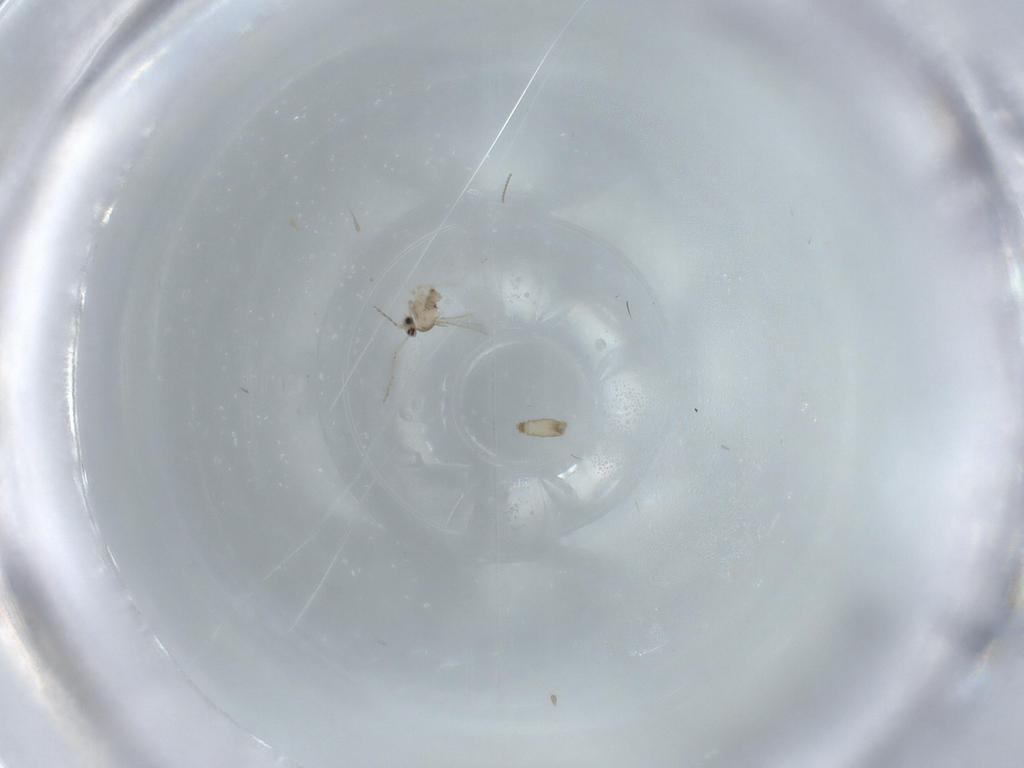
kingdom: Animalia
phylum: Arthropoda
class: Insecta
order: Diptera
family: Cecidomyiidae
